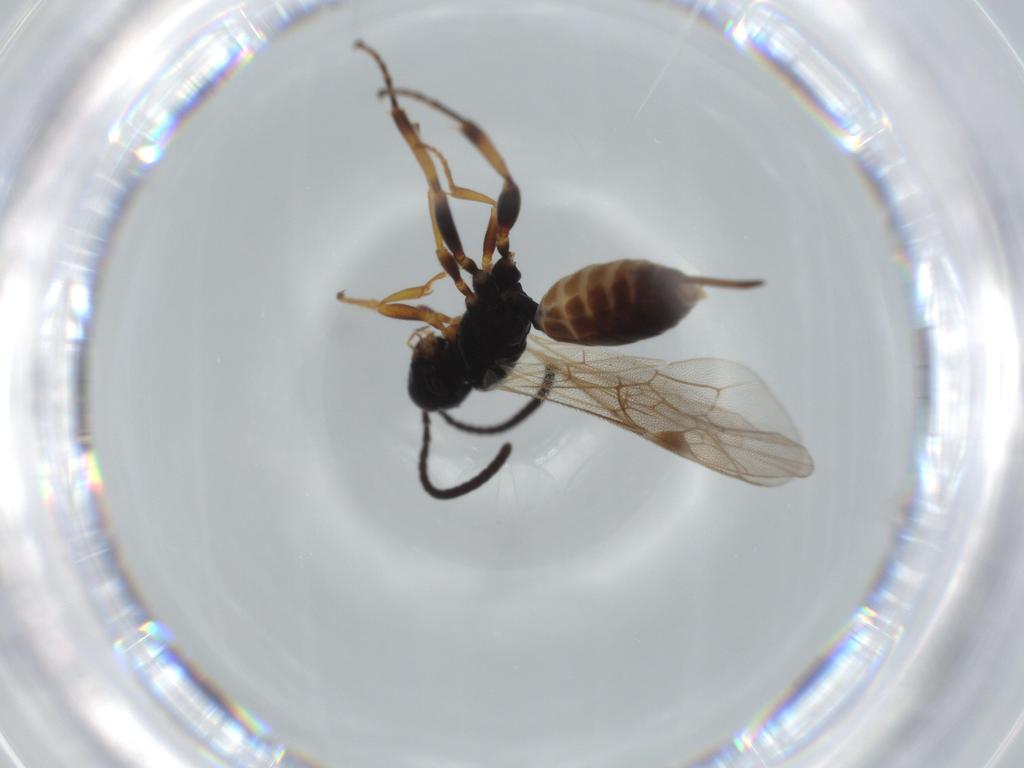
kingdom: Animalia
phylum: Arthropoda
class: Insecta
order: Hymenoptera
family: Ichneumonidae
